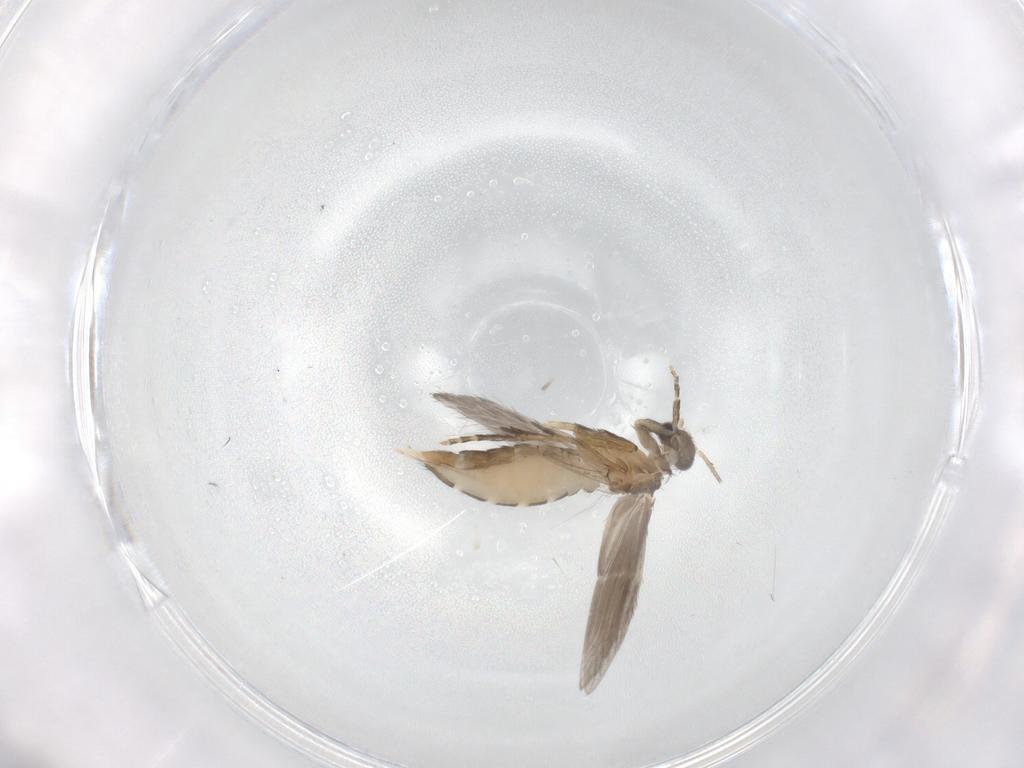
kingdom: Animalia
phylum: Arthropoda
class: Insecta
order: Trichoptera
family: Hydroptilidae
